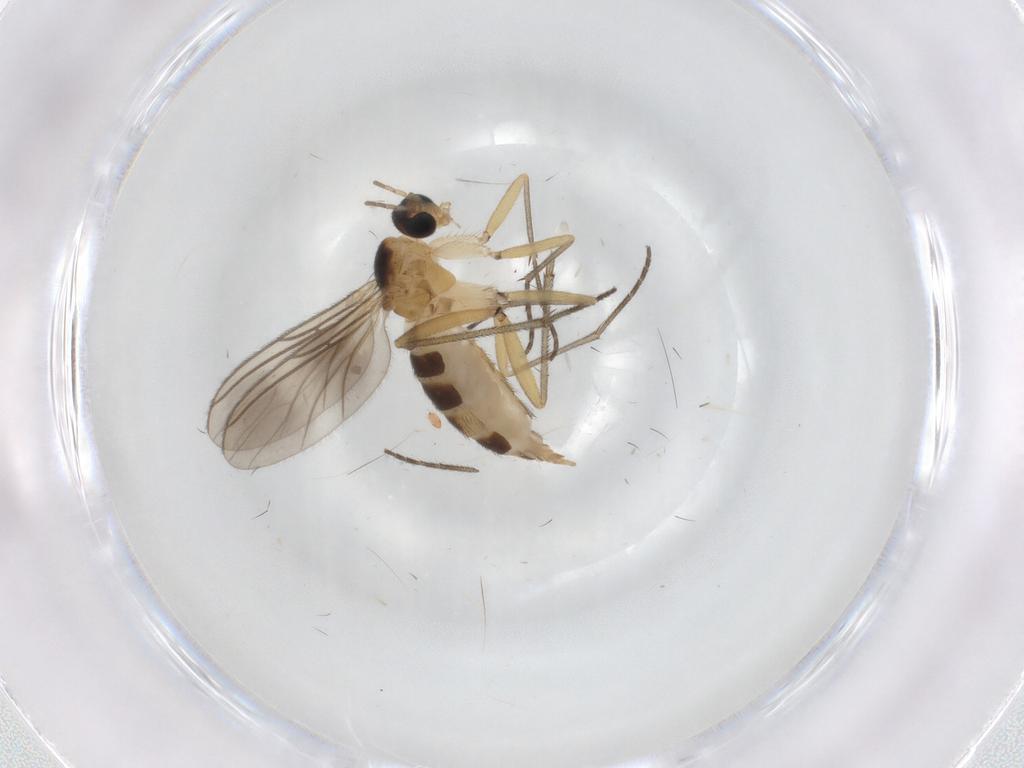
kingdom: Animalia
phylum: Arthropoda
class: Insecta
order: Diptera
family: Sciaridae
